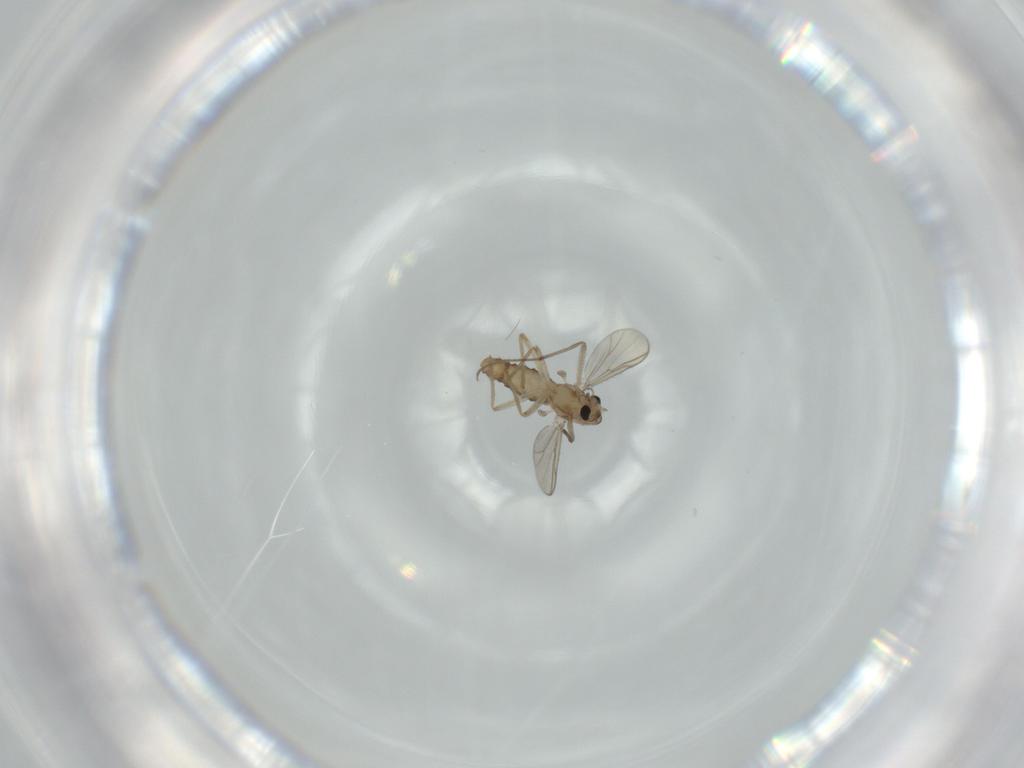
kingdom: Animalia
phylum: Arthropoda
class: Insecta
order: Diptera
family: Chironomidae
